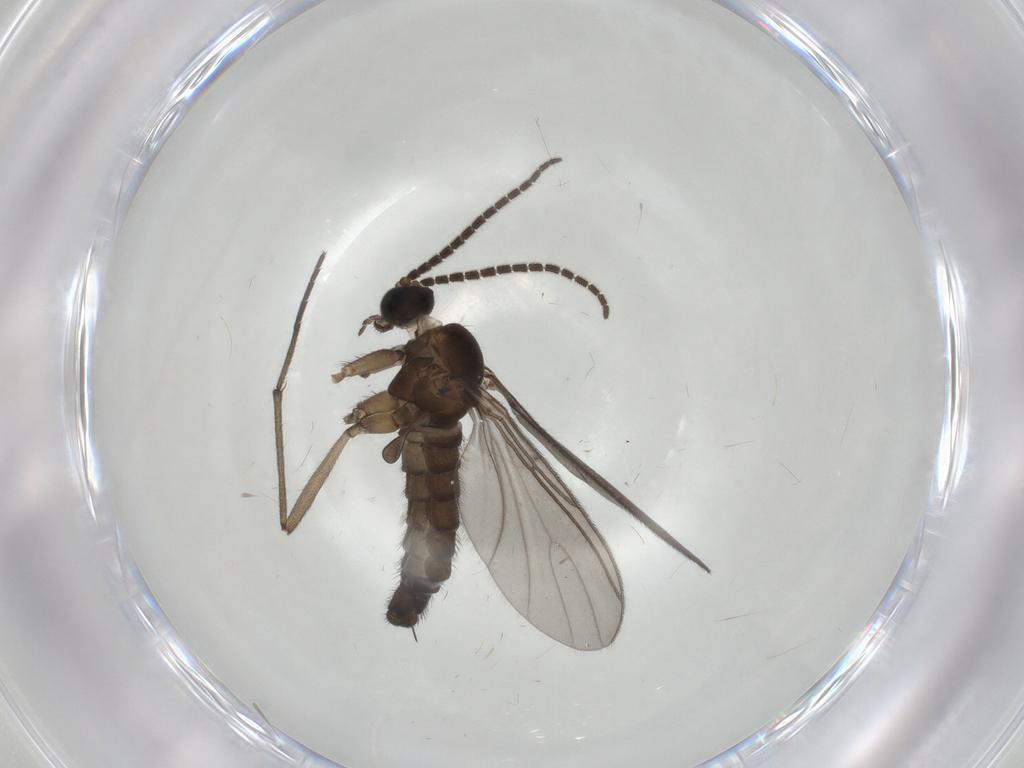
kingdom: Animalia
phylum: Arthropoda
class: Insecta
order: Diptera
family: Sciaridae
